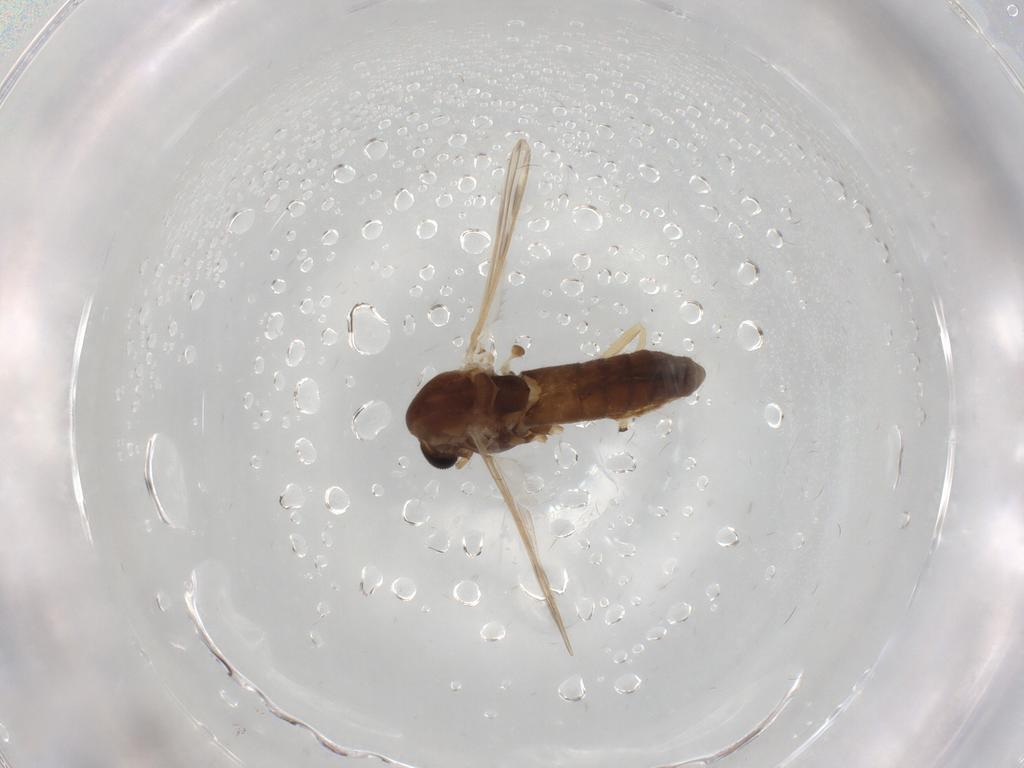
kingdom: Animalia
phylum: Arthropoda
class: Insecta
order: Diptera
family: Chironomidae
